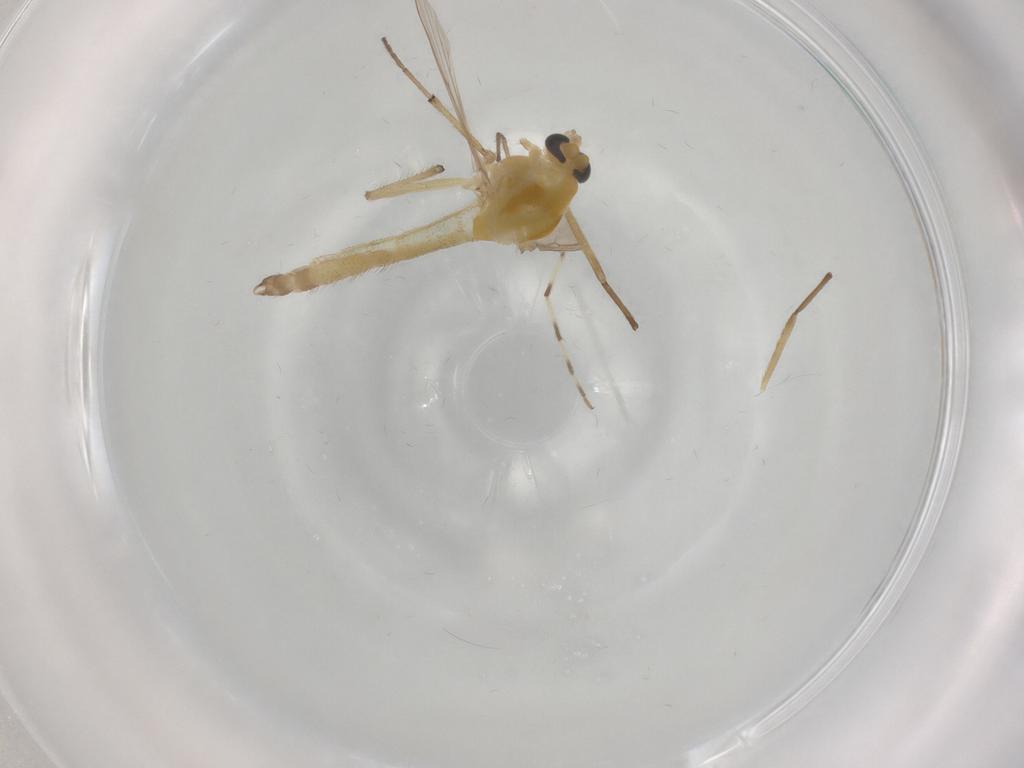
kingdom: Animalia
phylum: Arthropoda
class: Insecta
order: Diptera
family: Chironomidae
